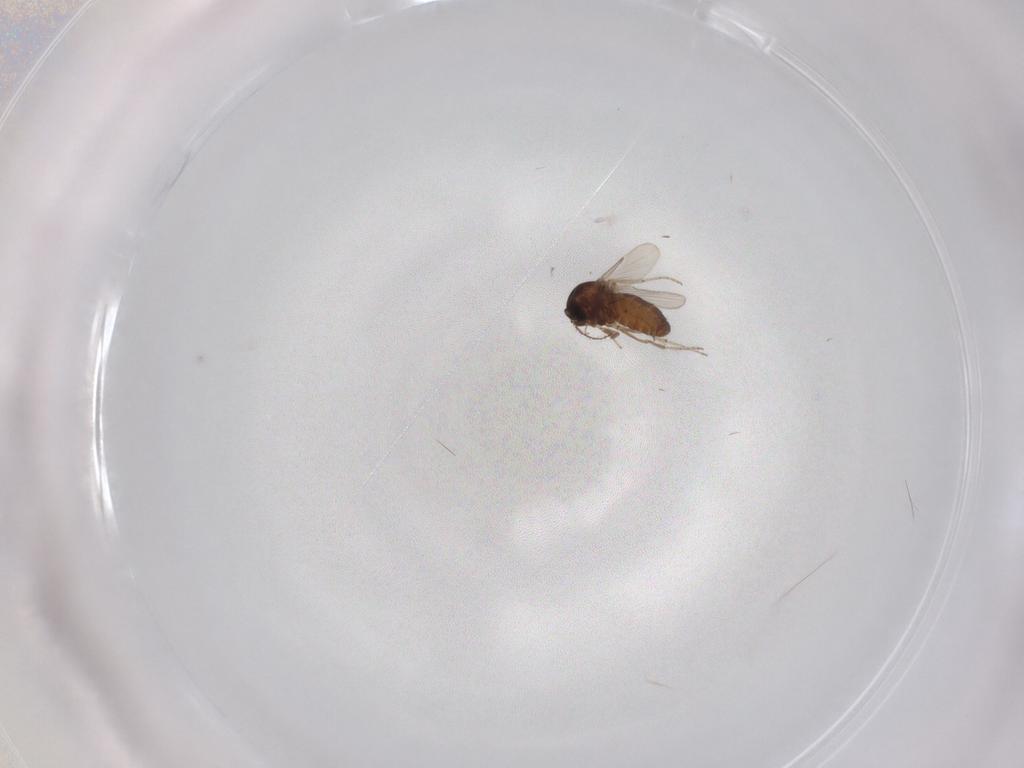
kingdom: Animalia
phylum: Arthropoda
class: Insecta
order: Diptera
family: Ceratopogonidae
